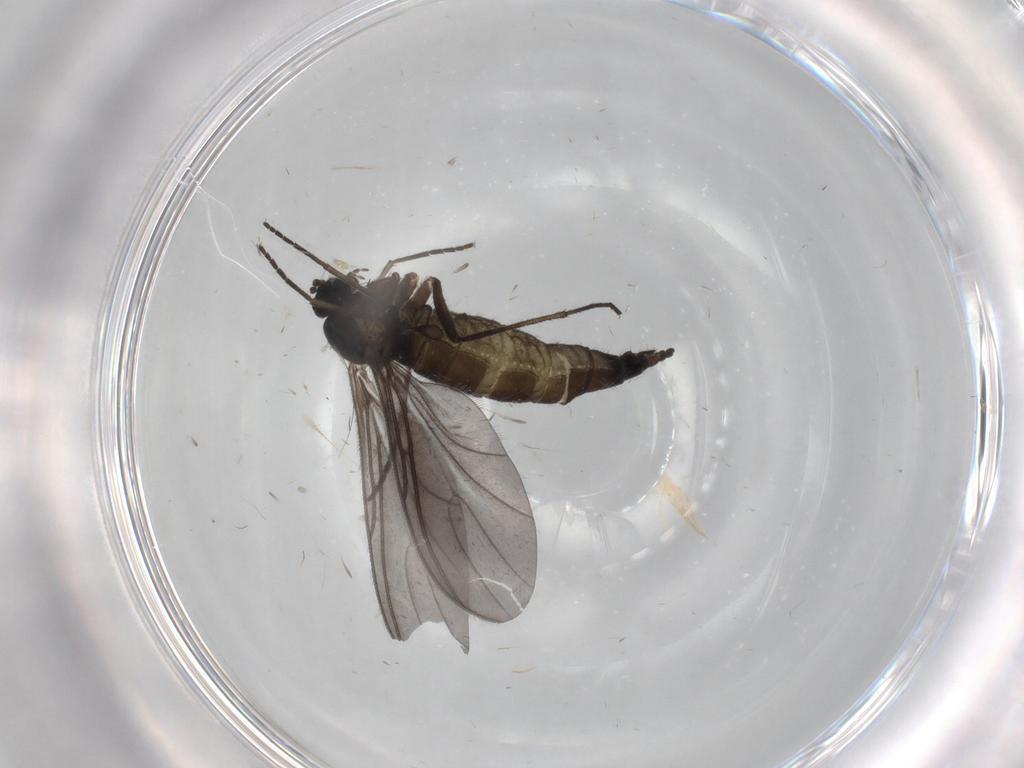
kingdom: Animalia
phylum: Arthropoda
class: Insecta
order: Diptera
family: Sciaridae
